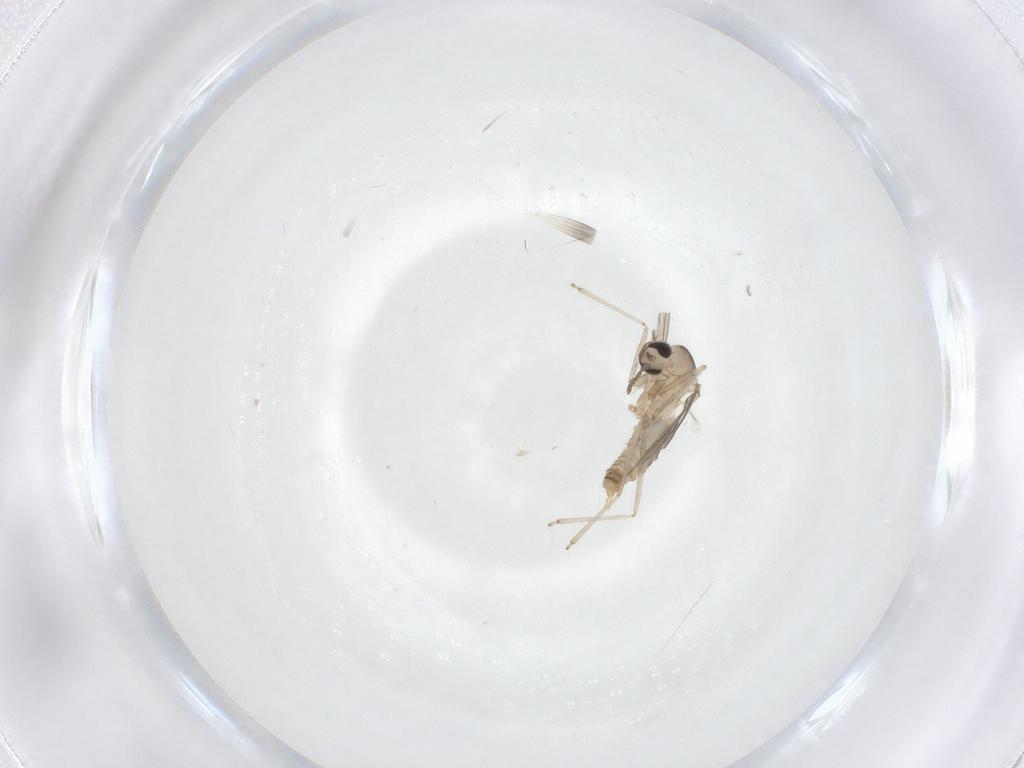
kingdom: Animalia
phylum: Arthropoda
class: Insecta
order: Diptera
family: Cecidomyiidae
